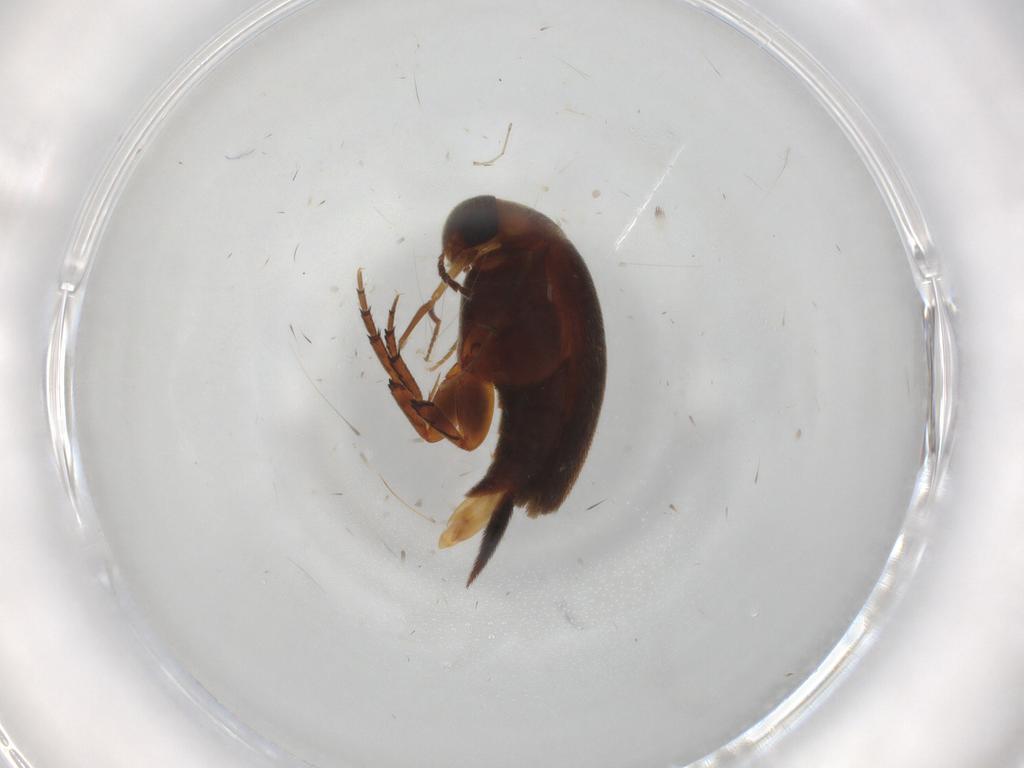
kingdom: Animalia
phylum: Arthropoda
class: Insecta
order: Coleoptera
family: Mordellidae
